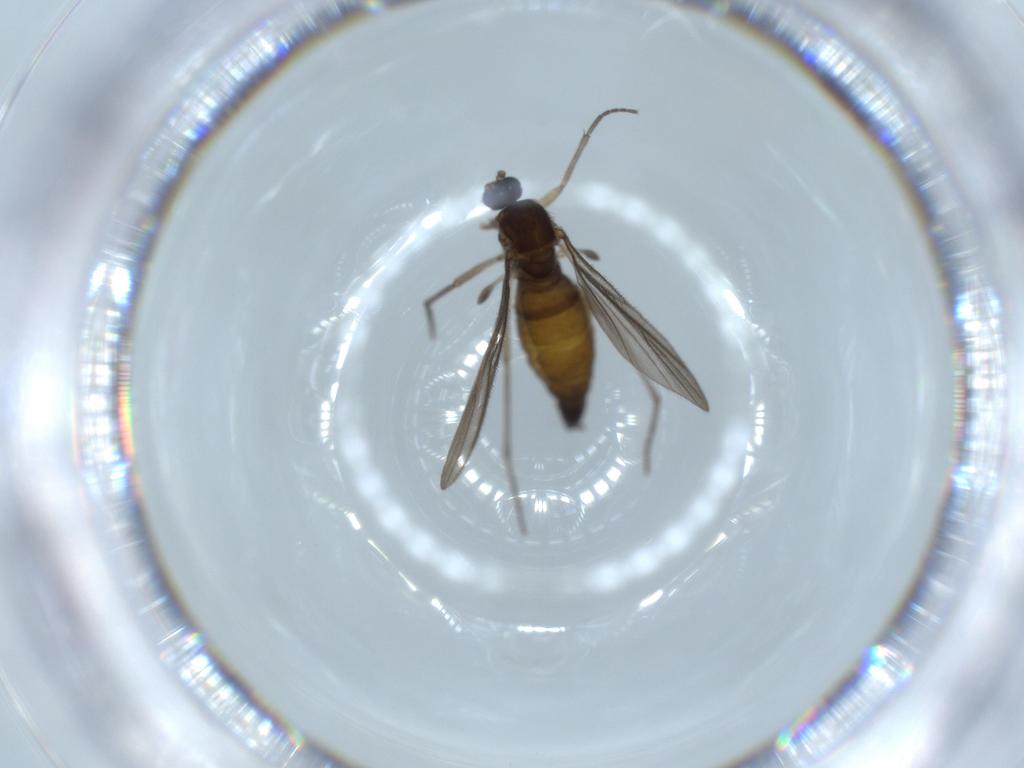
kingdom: Animalia
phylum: Arthropoda
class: Insecta
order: Diptera
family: Sciaridae
